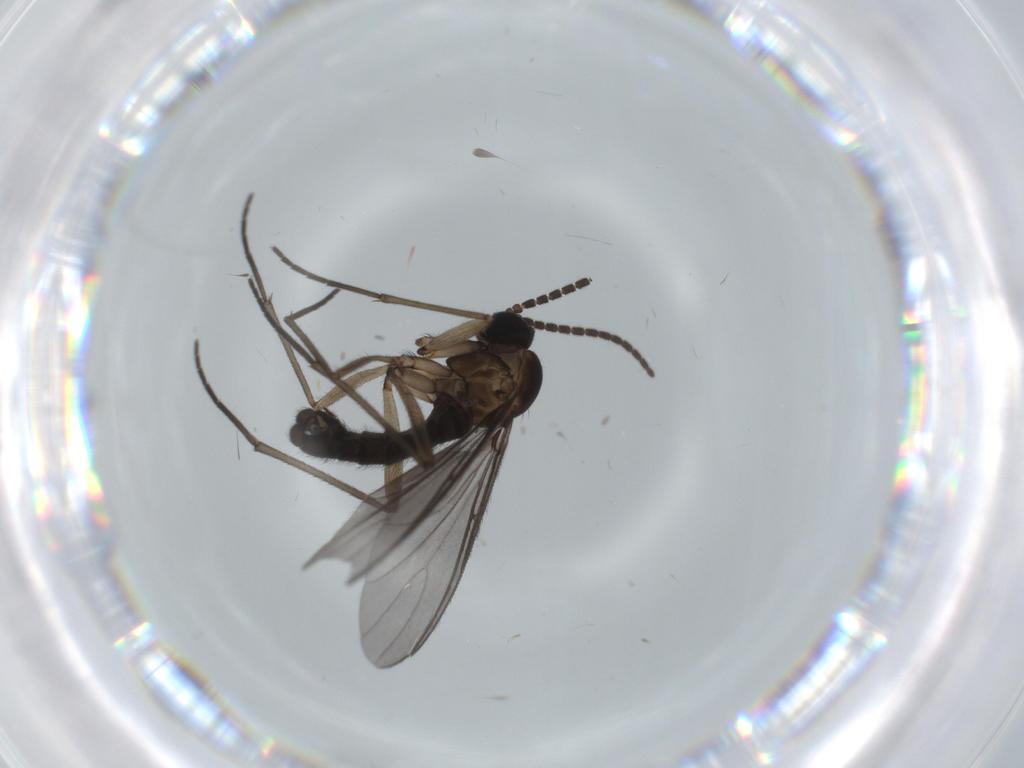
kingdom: Animalia
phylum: Arthropoda
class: Insecta
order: Diptera
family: Sciaridae
